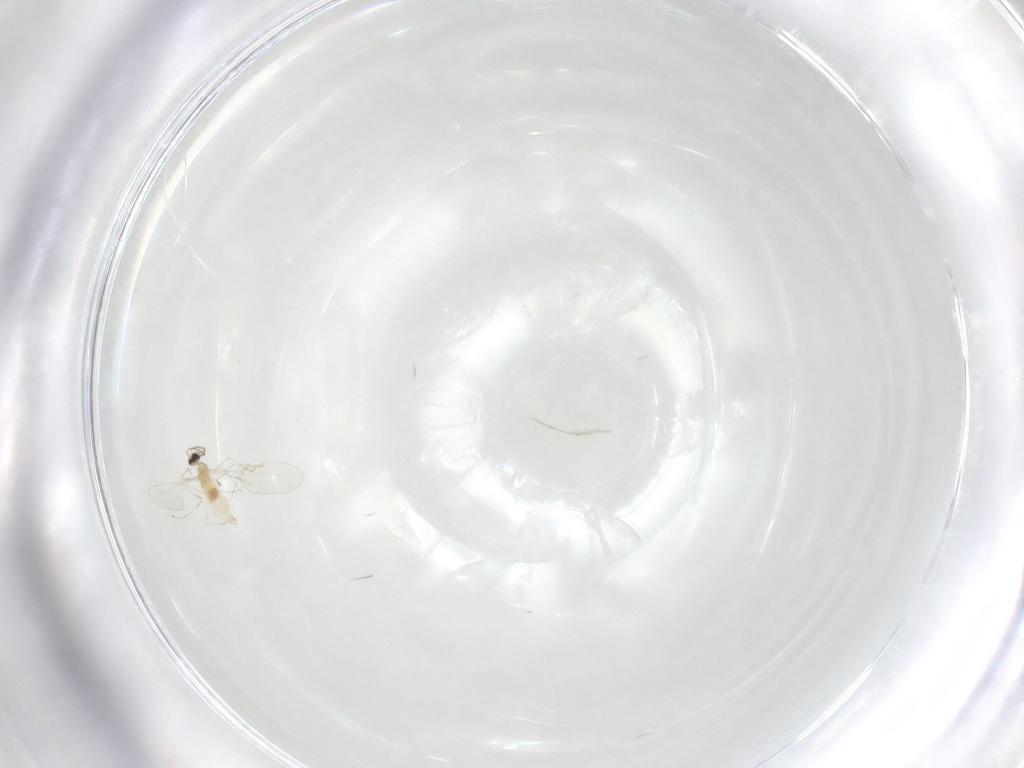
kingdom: Animalia
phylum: Arthropoda
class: Insecta
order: Diptera
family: Cecidomyiidae
